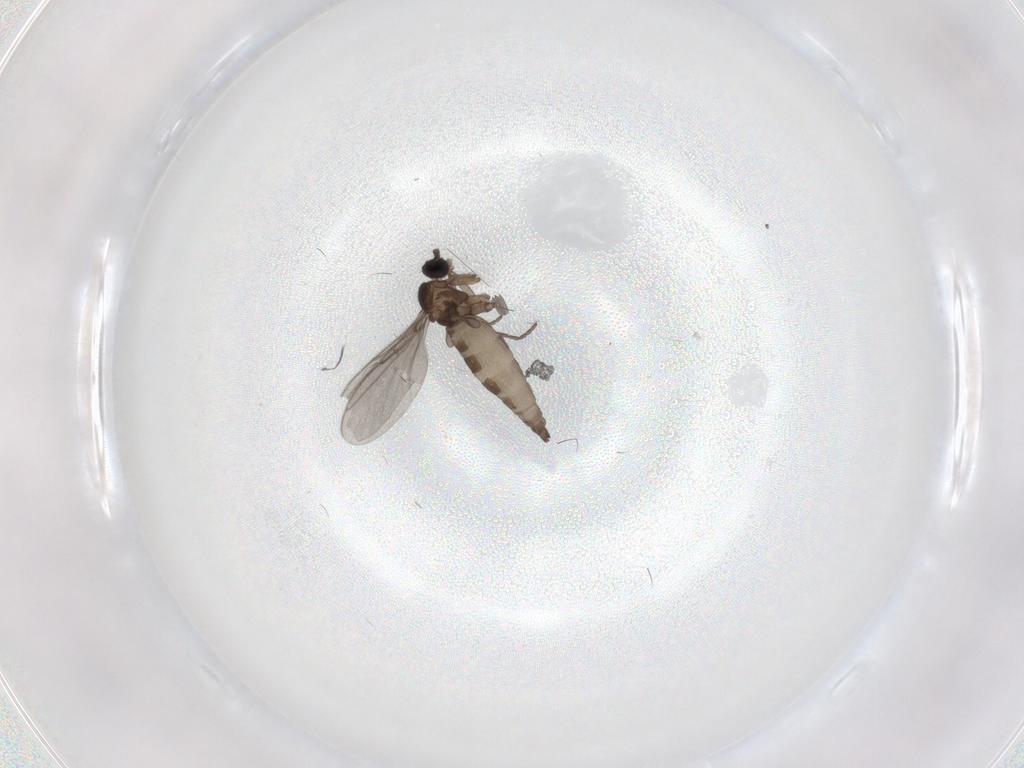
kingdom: Animalia
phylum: Arthropoda
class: Insecta
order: Diptera
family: Sciaridae
